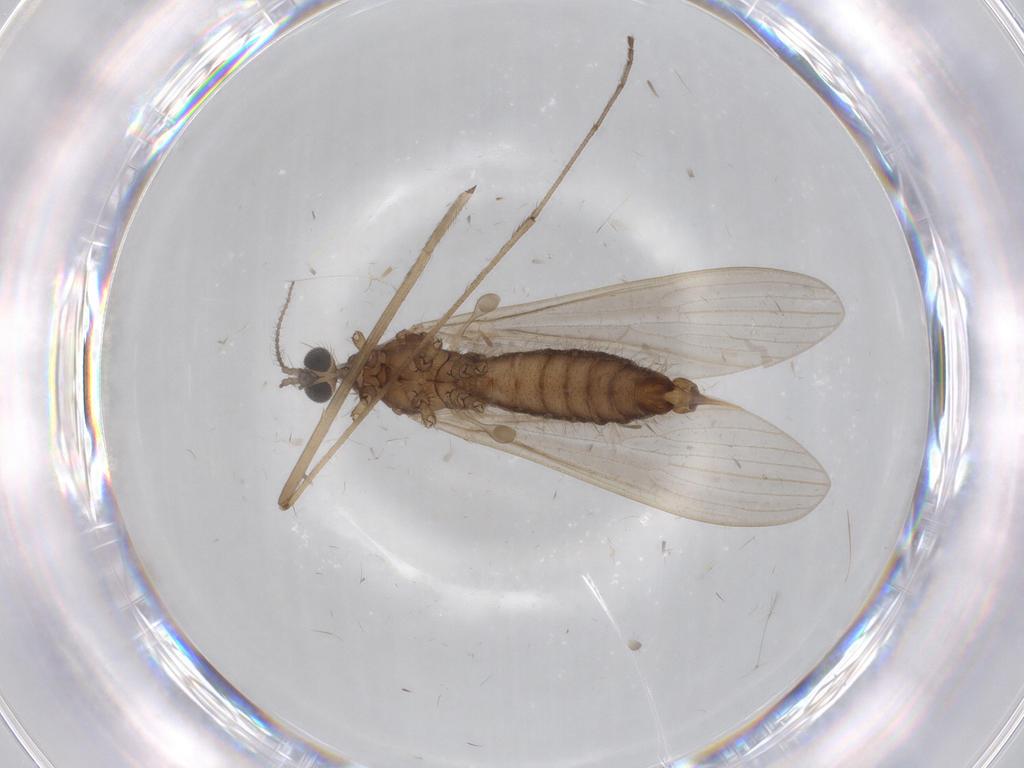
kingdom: Animalia
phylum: Arthropoda
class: Insecta
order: Diptera
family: Limoniidae
